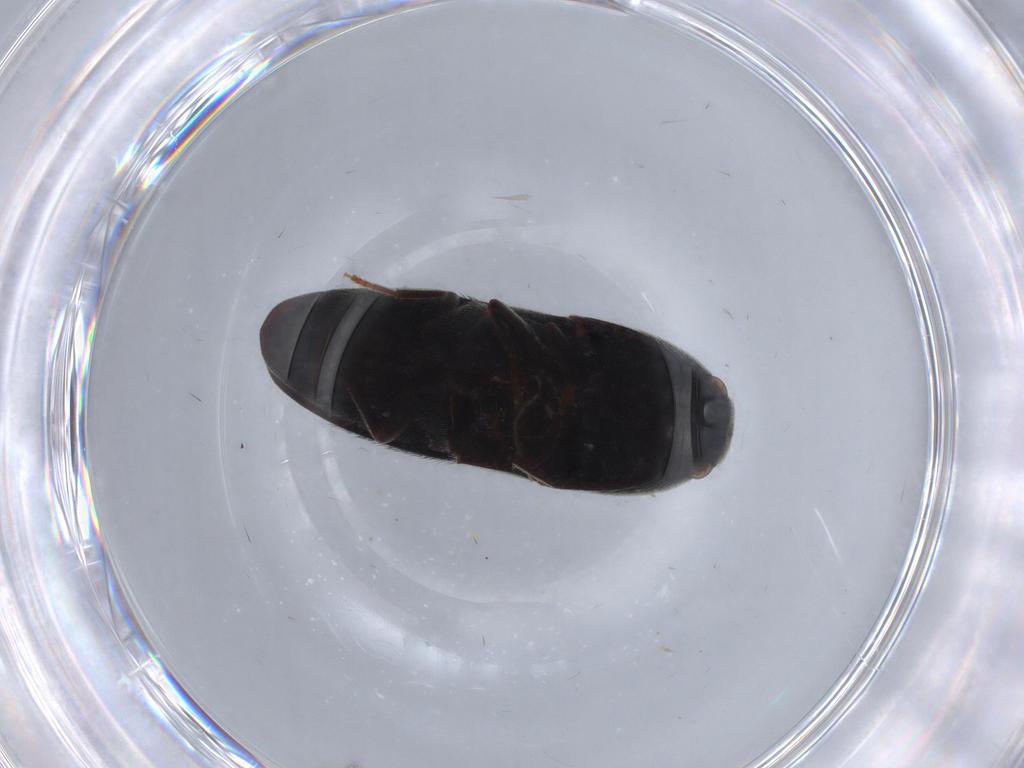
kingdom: Animalia
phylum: Arthropoda
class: Insecta
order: Coleoptera
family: Eucnemidae
